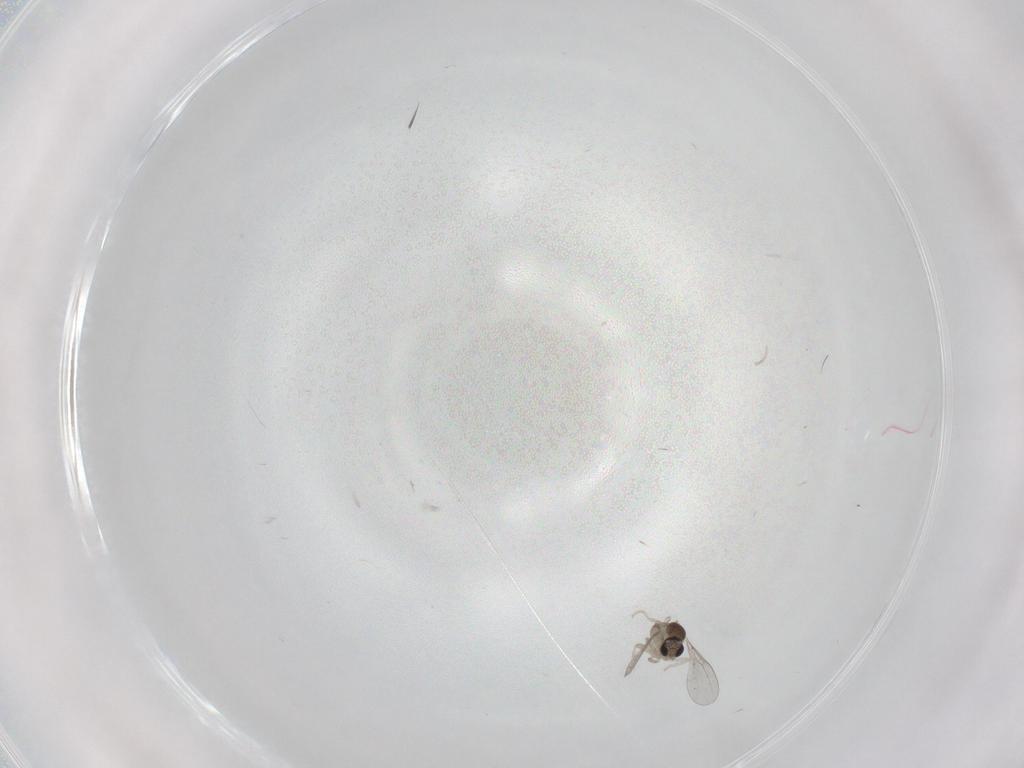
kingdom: Animalia
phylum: Arthropoda
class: Insecta
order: Diptera
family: Cecidomyiidae
